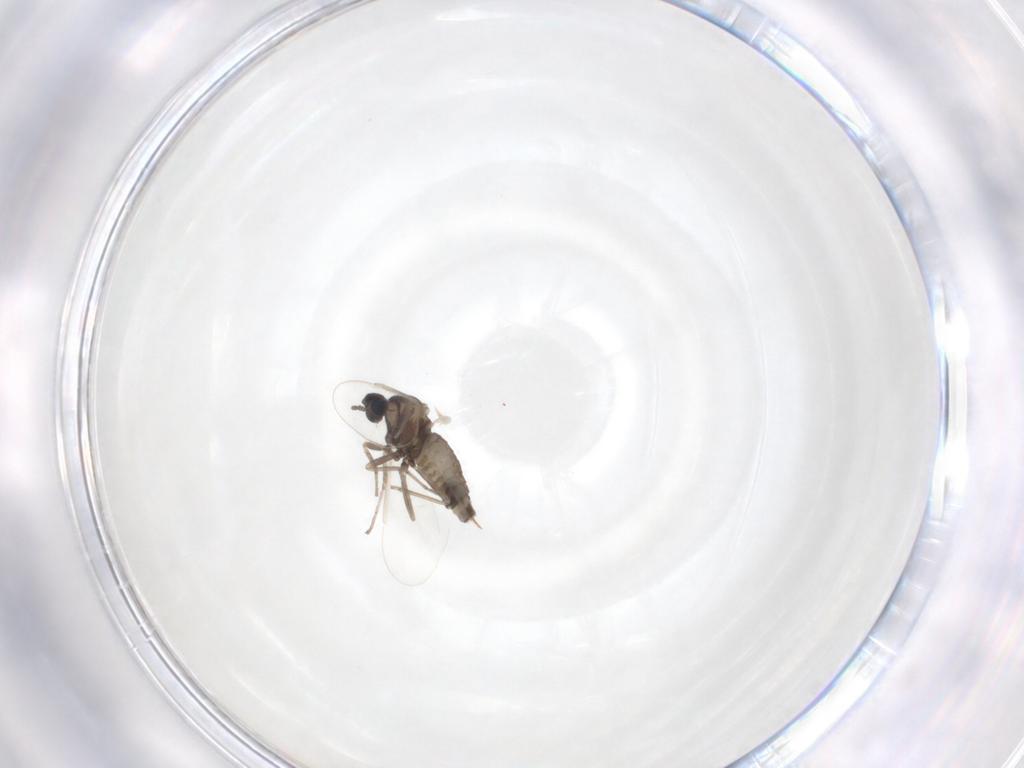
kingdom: Animalia
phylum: Arthropoda
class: Insecta
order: Diptera
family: Cecidomyiidae
